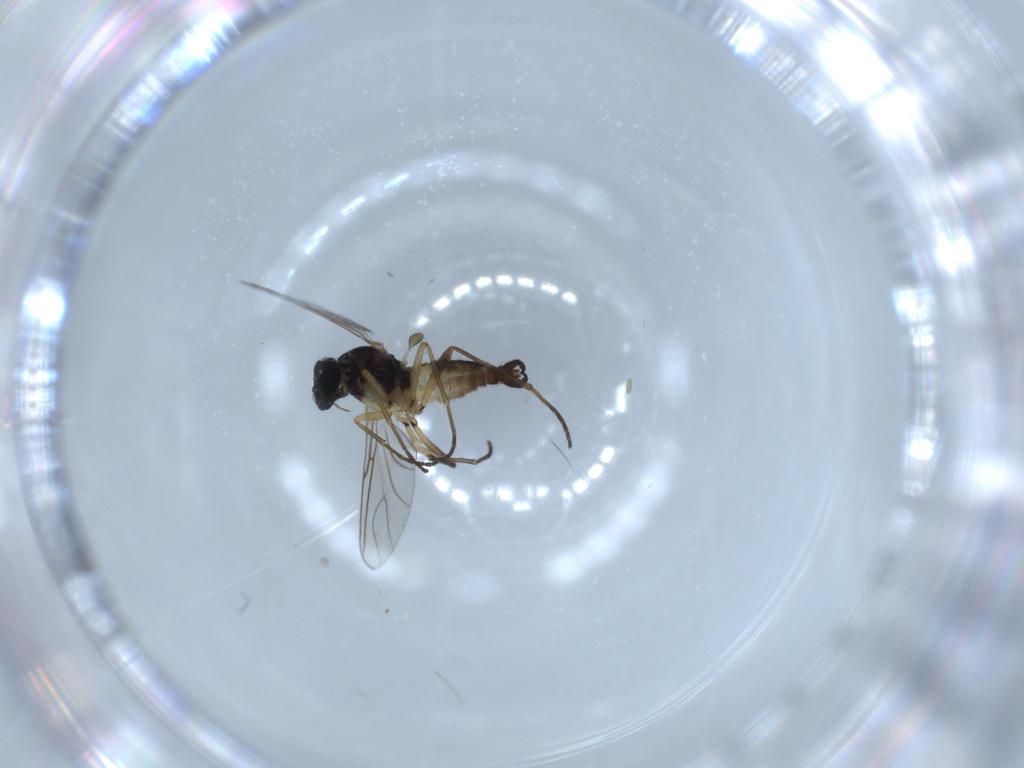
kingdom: Animalia
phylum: Arthropoda
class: Insecta
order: Diptera
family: Sciaridae
